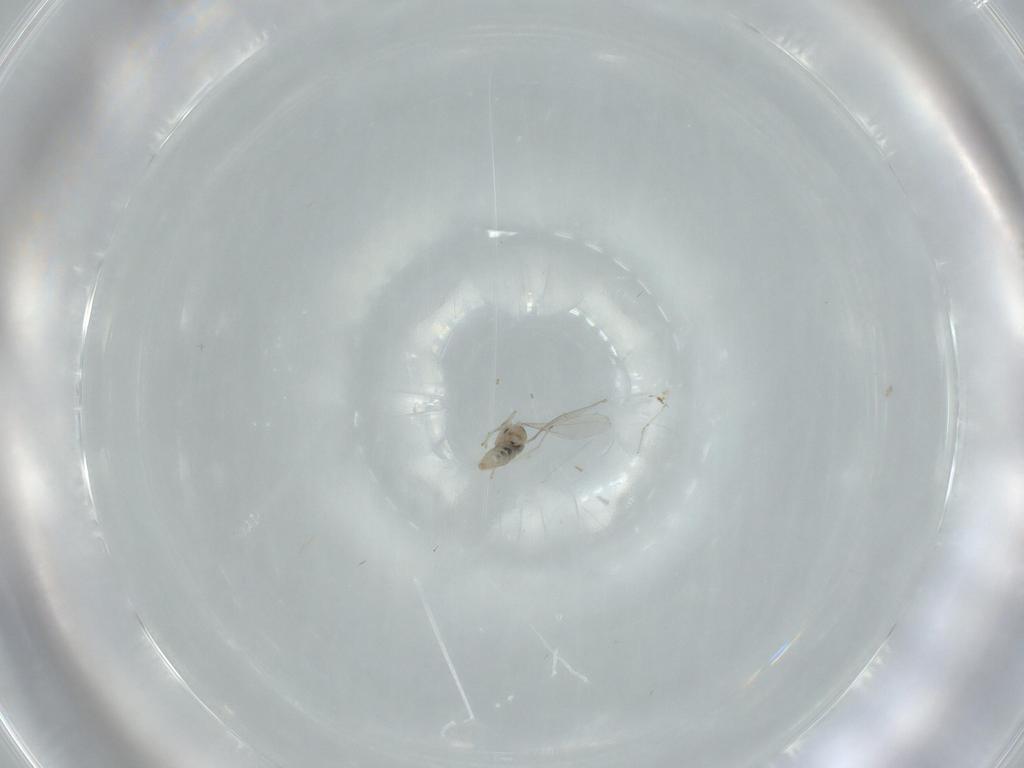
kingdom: Animalia
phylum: Arthropoda
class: Insecta
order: Diptera
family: Cecidomyiidae
